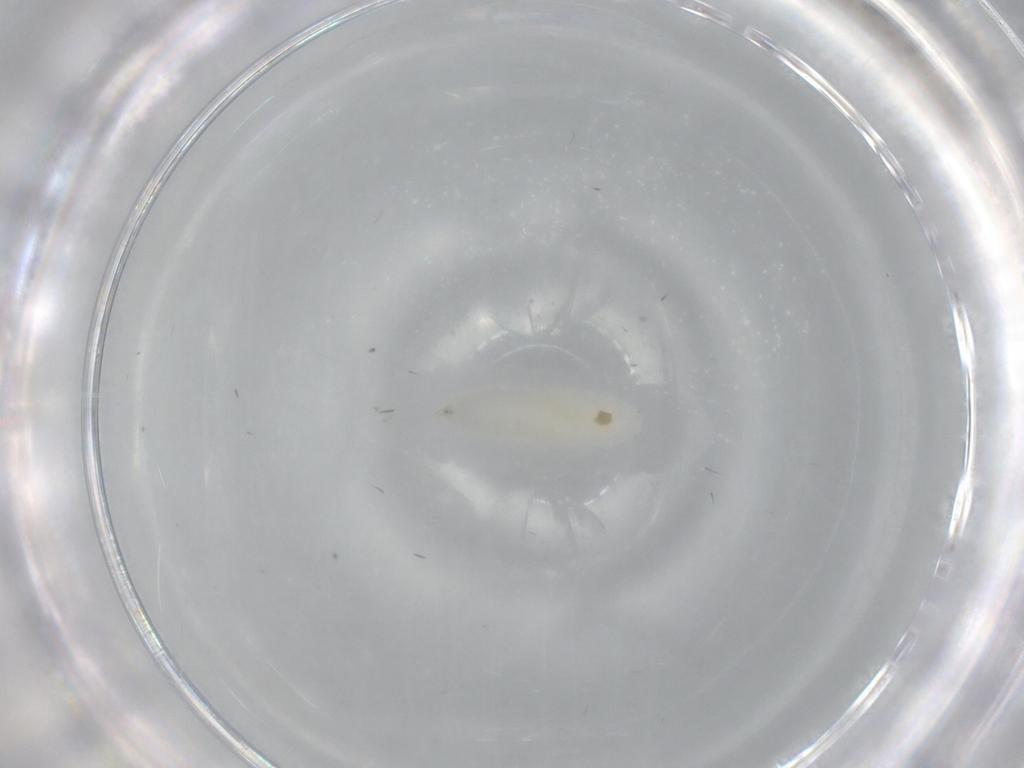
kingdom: Animalia
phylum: Arthropoda
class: Insecta
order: Diptera
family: Cecidomyiidae
